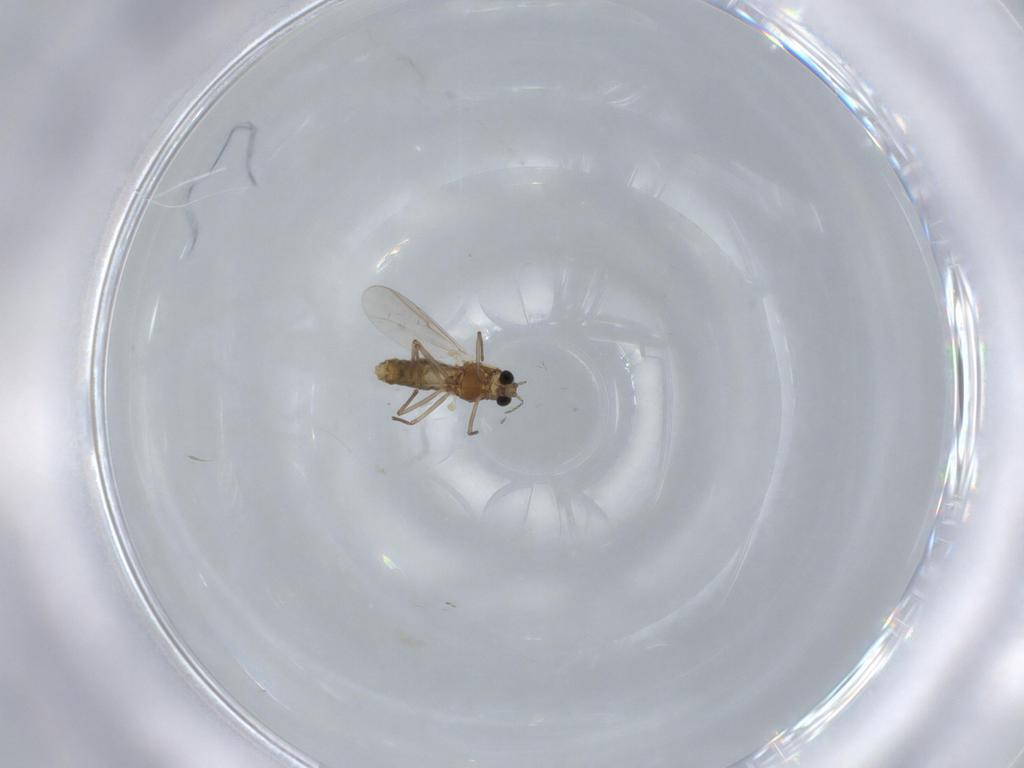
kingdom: Animalia
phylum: Arthropoda
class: Insecta
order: Diptera
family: Chironomidae
